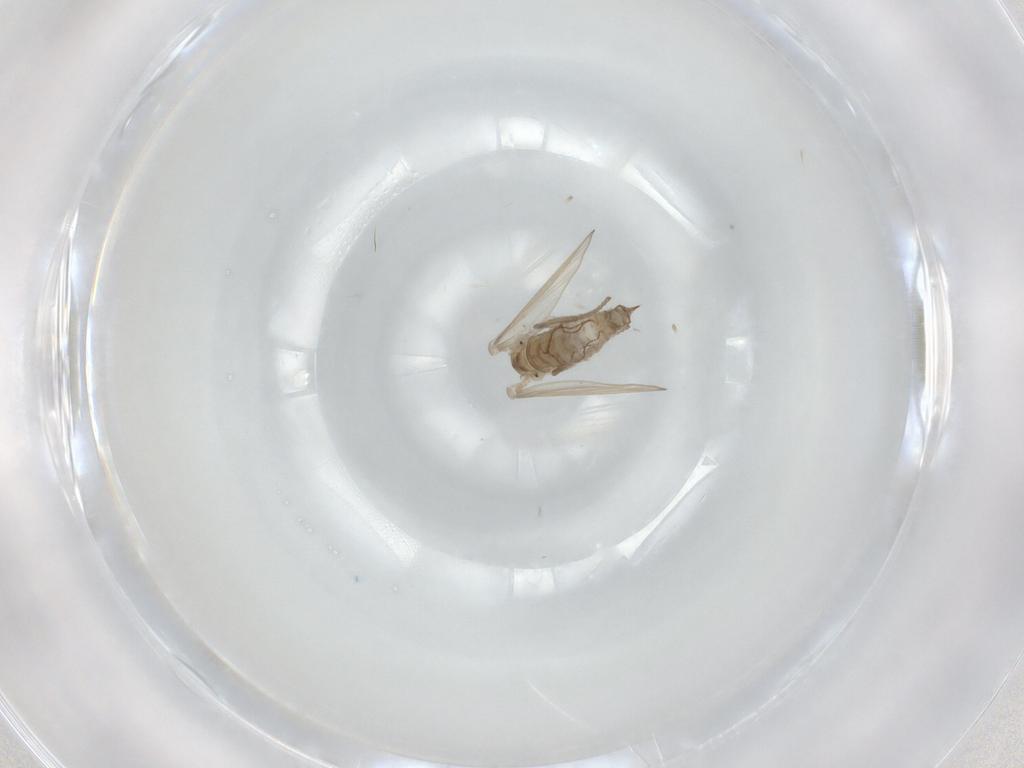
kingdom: Animalia
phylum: Arthropoda
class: Insecta
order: Diptera
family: Psychodidae
